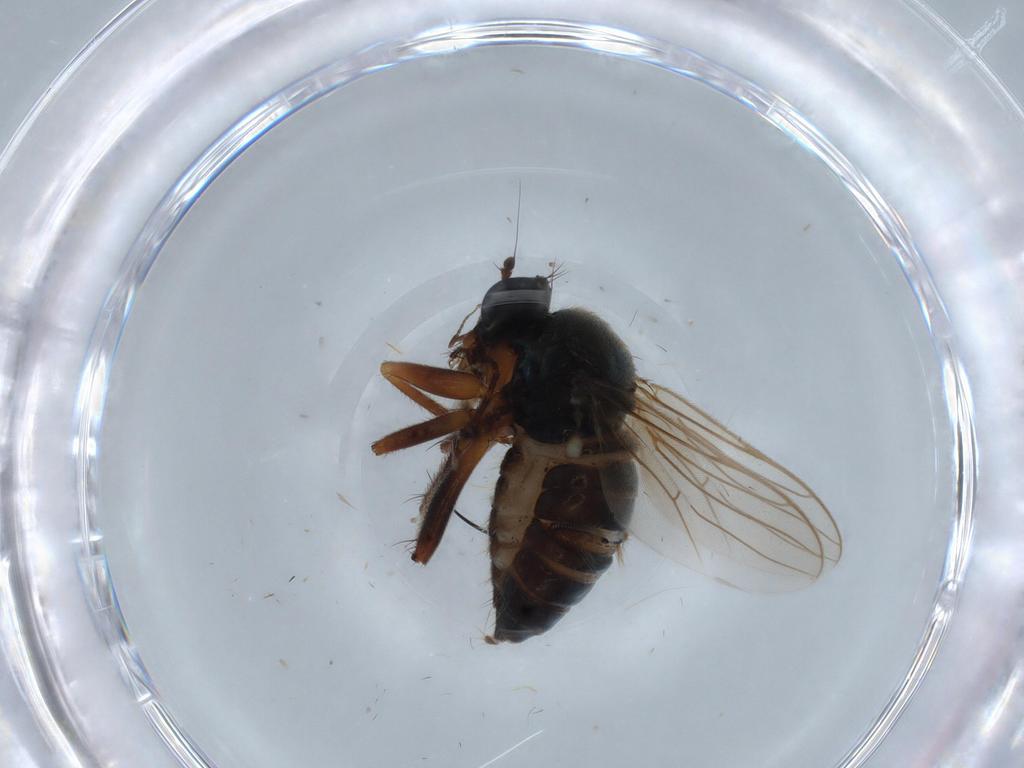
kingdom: Animalia
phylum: Arthropoda
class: Insecta
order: Diptera
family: Hybotidae
